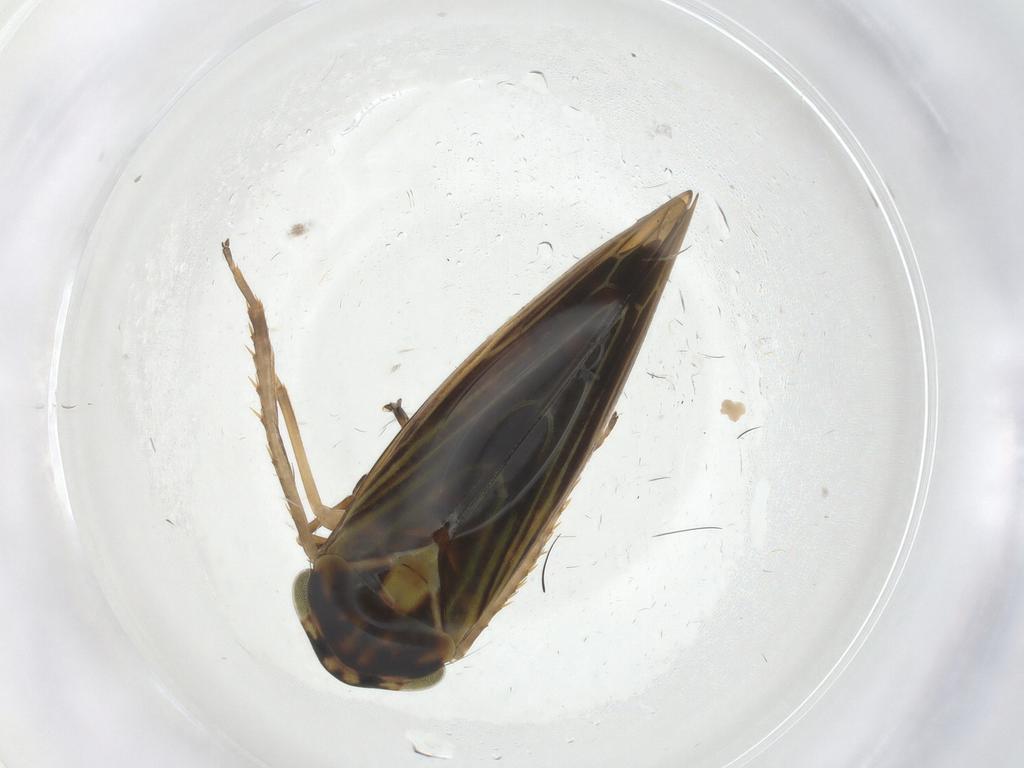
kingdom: Animalia
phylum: Arthropoda
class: Insecta
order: Hemiptera
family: Cicadellidae
